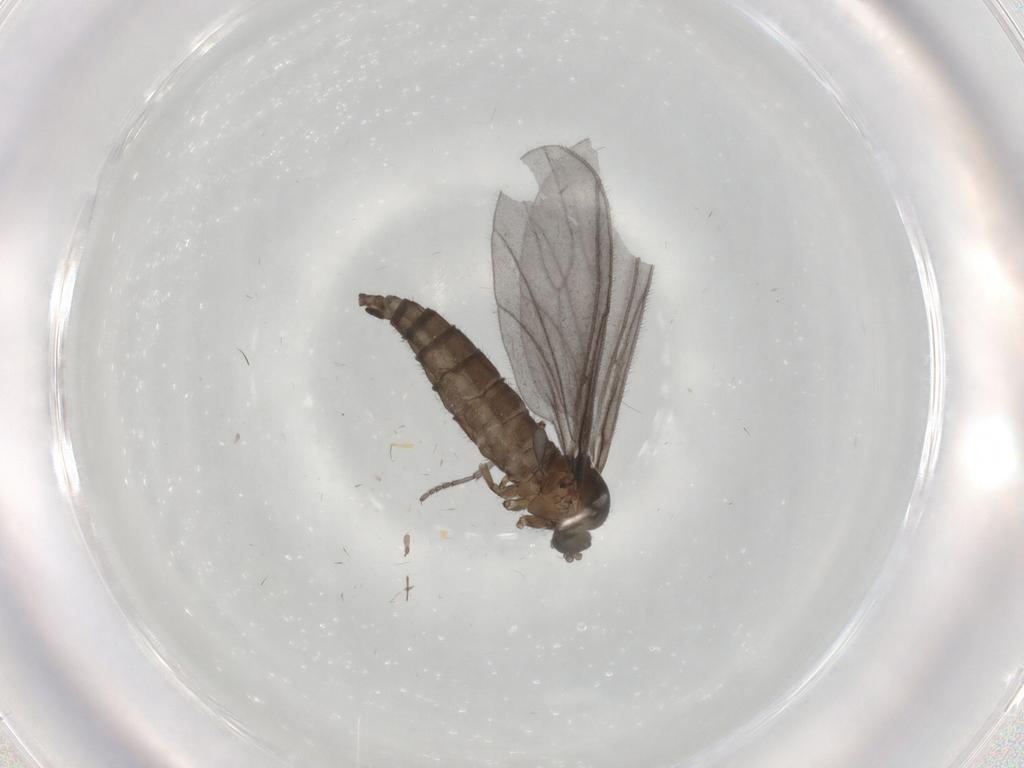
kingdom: Animalia
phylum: Arthropoda
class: Insecta
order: Diptera
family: Sciaridae
